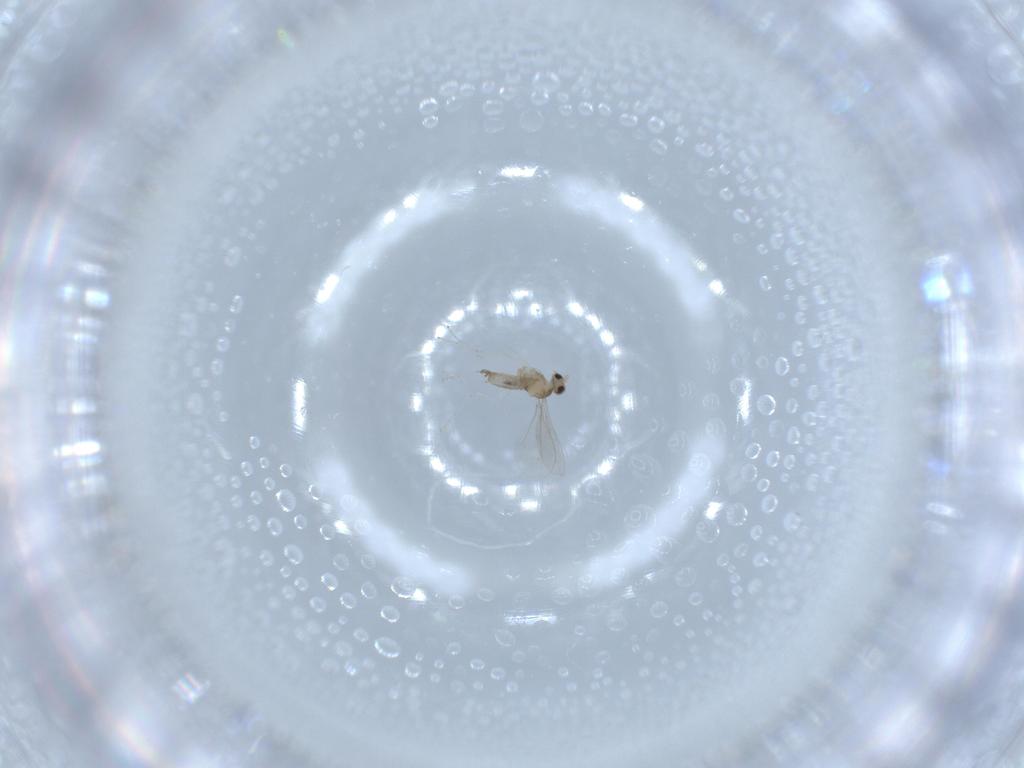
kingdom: Animalia
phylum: Arthropoda
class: Insecta
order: Diptera
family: Cecidomyiidae
